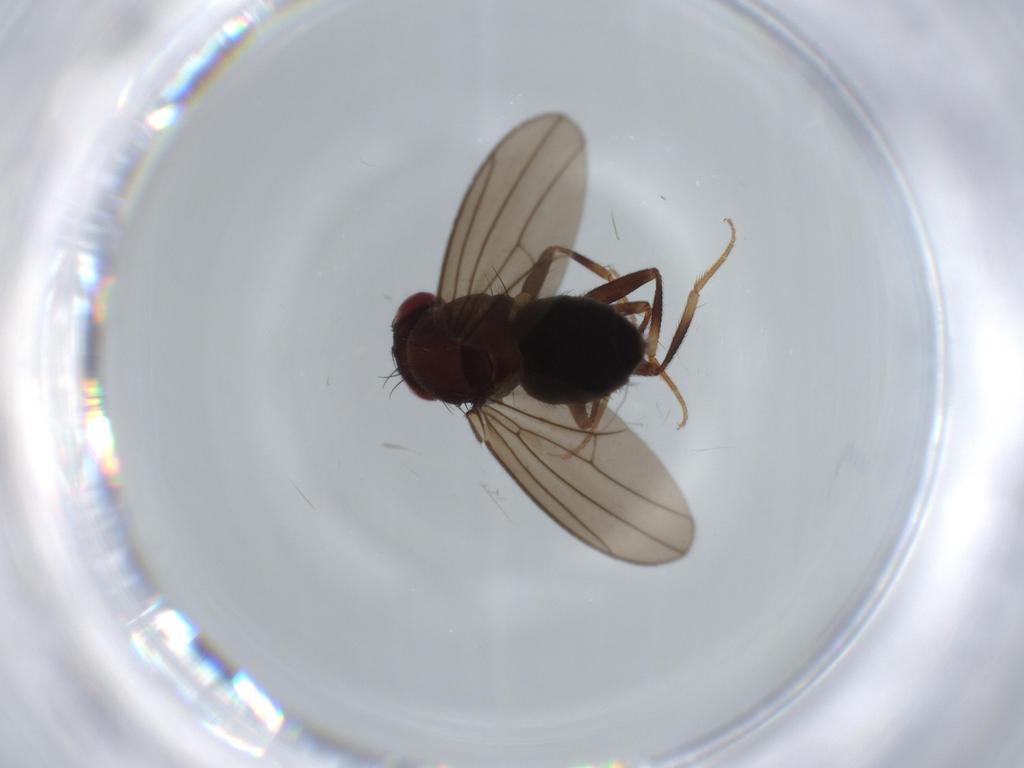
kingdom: Animalia
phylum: Arthropoda
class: Insecta
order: Diptera
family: Drosophilidae
